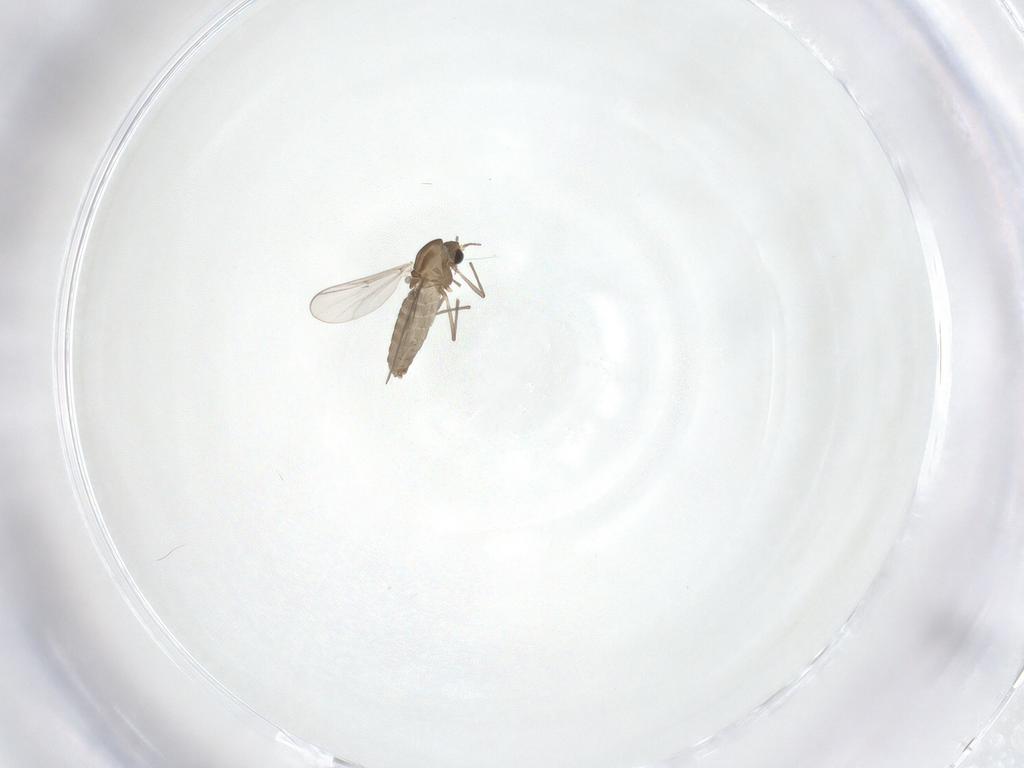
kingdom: Animalia
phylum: Arthropoda
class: Insecta
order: Diptera
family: Chironomidae
